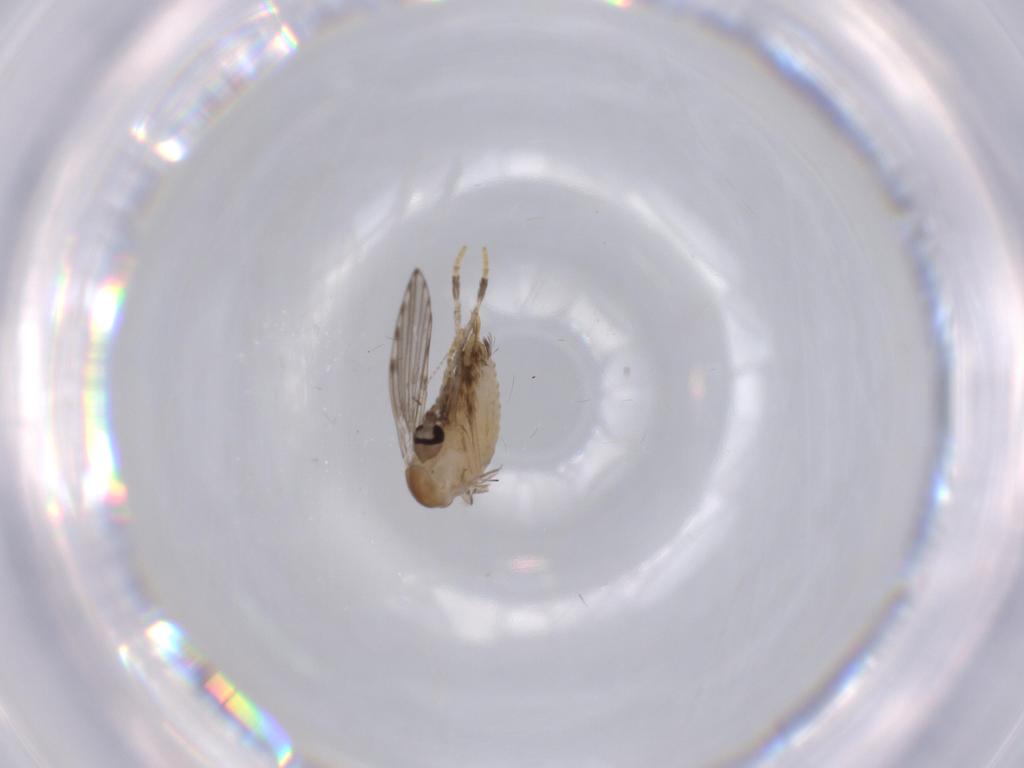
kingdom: Animalia
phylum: Arthropoda
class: Insecta
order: Diptera
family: Psychodidae
